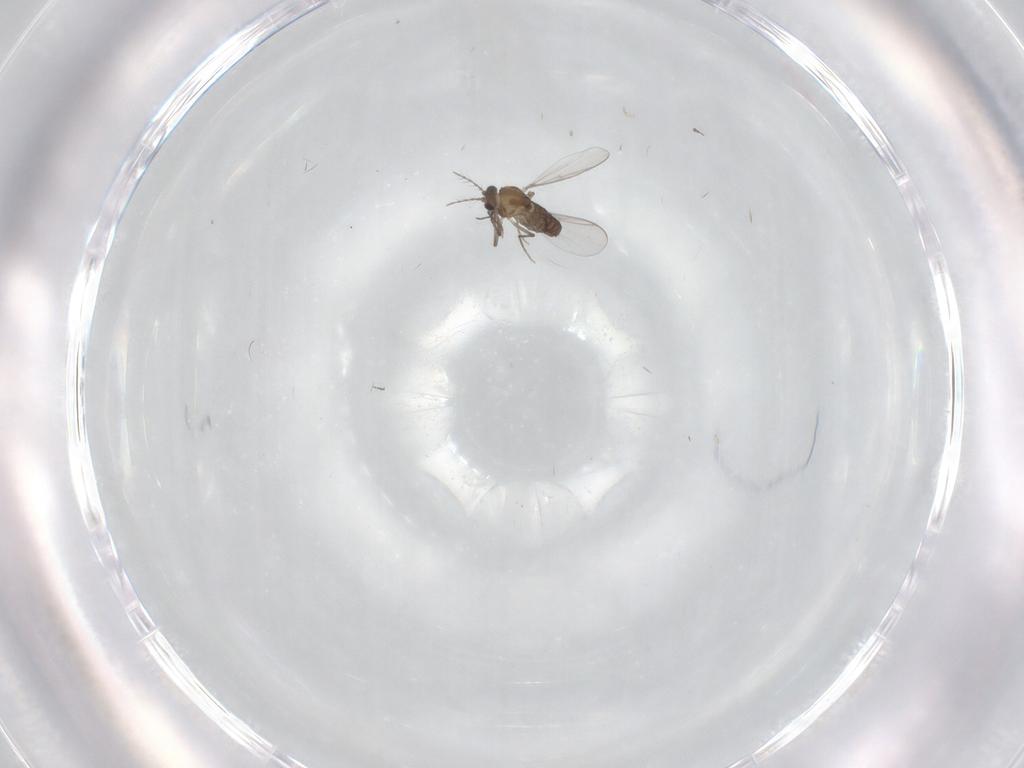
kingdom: Animalia
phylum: Arthropoda
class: Insecta
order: Diptera
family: Chironomidae
